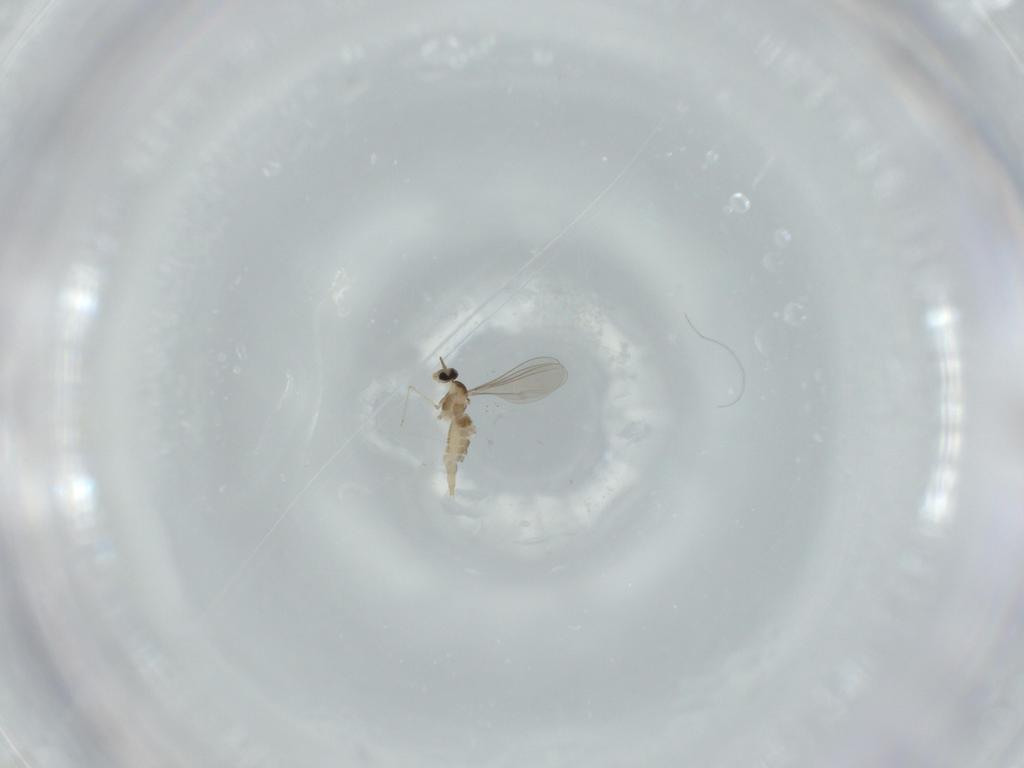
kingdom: Animalia
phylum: Arthropoda
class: Insecta
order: Diptera
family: Cecidomyiidae
